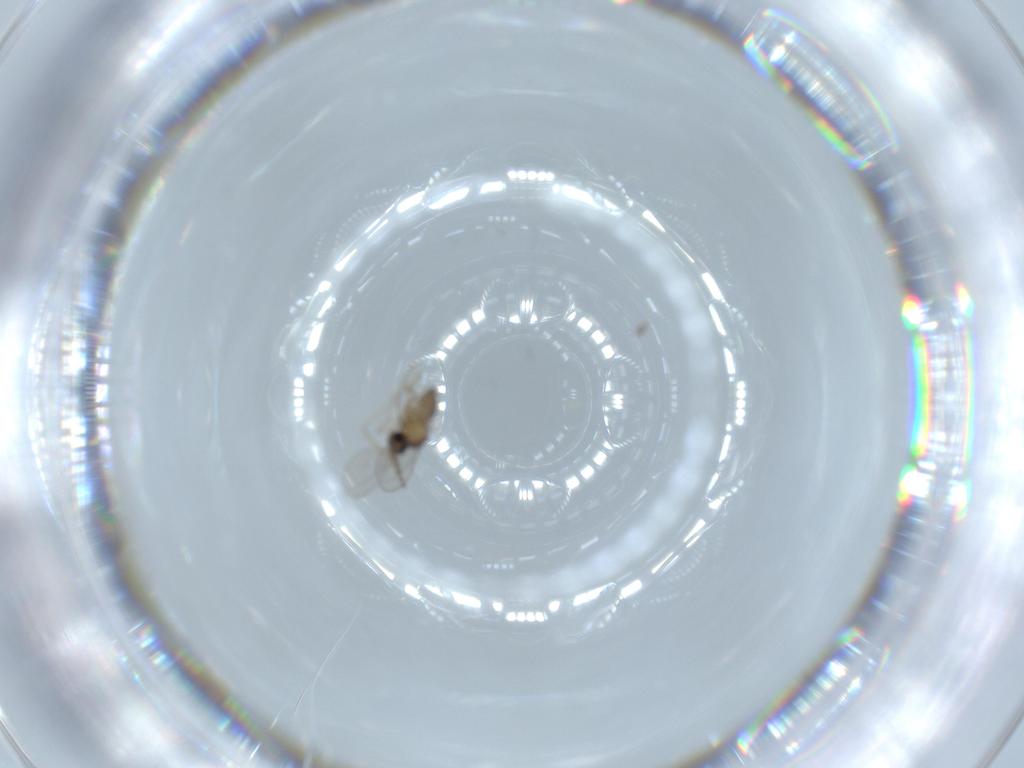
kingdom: Animalia
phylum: Arthropoda
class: Insecta
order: Diptera
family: Cecidomyiidae
